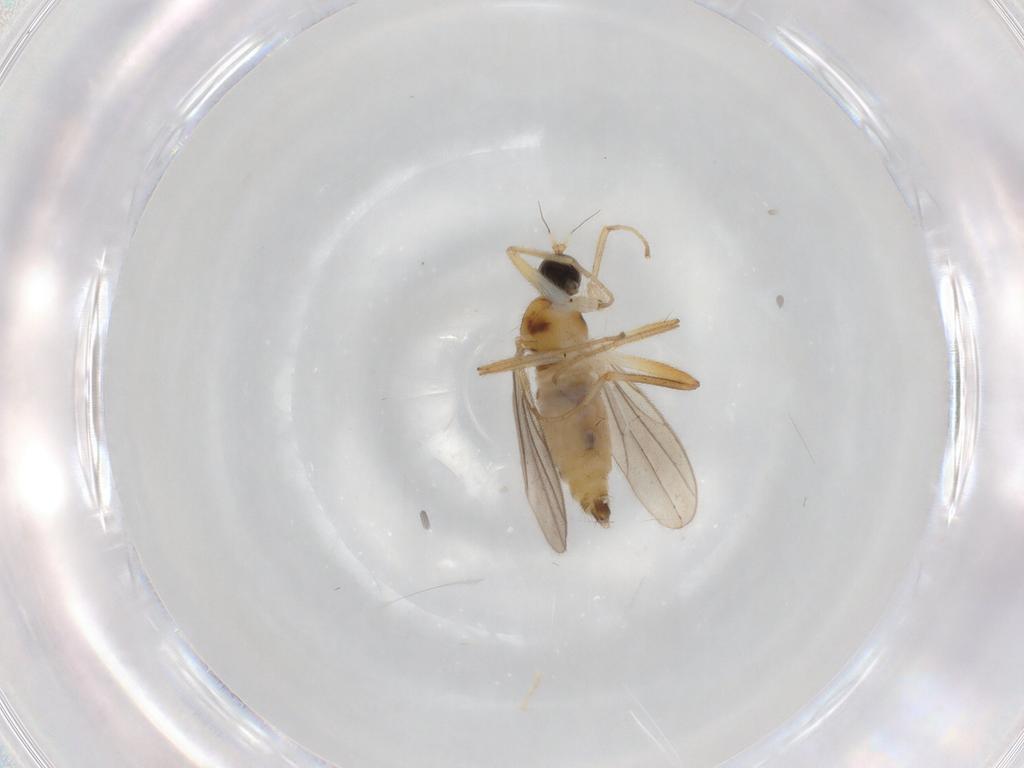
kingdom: Animalia
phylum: Arthropoda
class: Insecta
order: Diptera
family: Hybotidae
